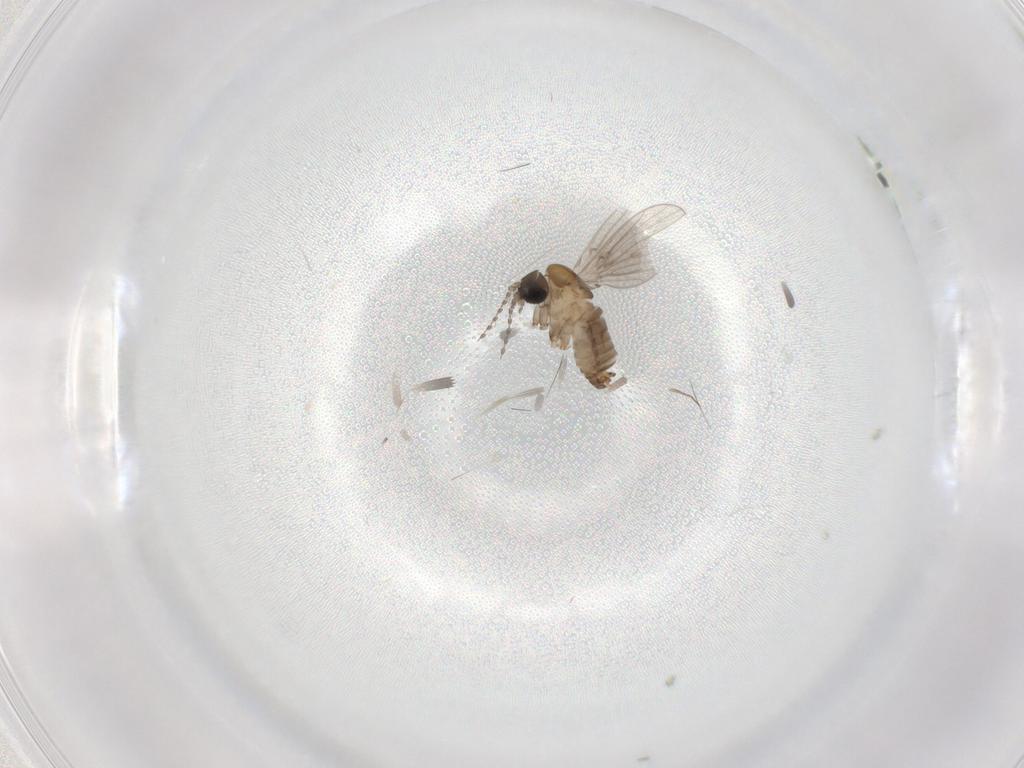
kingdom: Animalia
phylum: Arthropoda
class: Insecta
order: Diptera
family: Psychodidae
